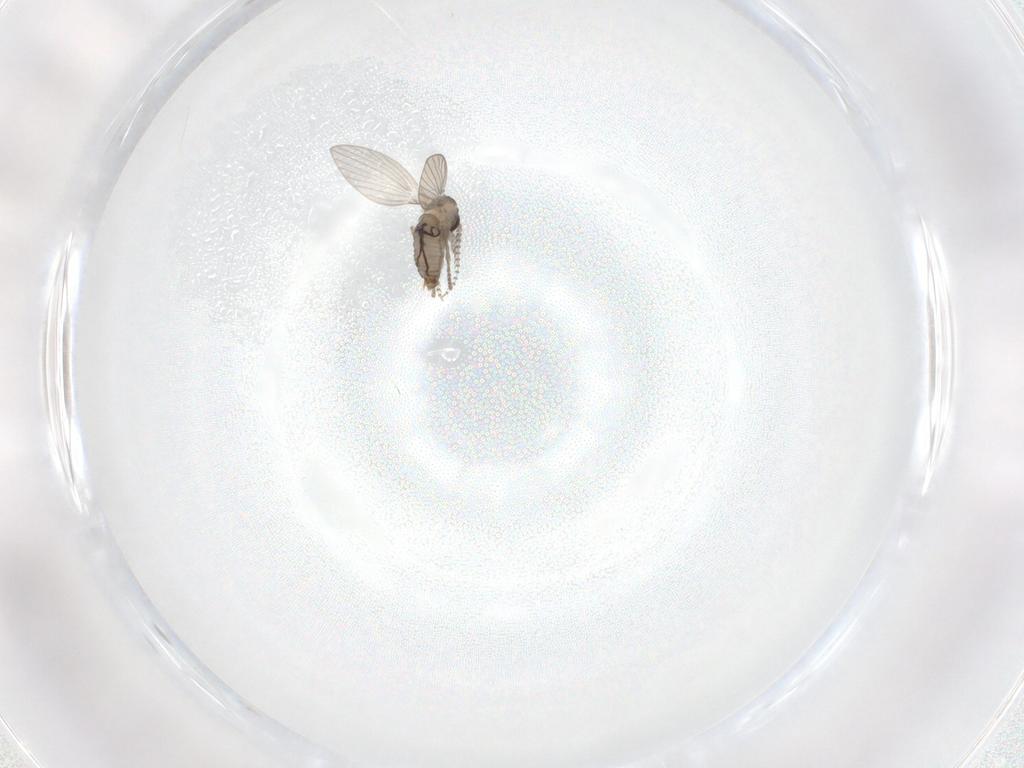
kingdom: Animalia
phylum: Arthropoda
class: Insecta
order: Diptera
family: Psychodidae
